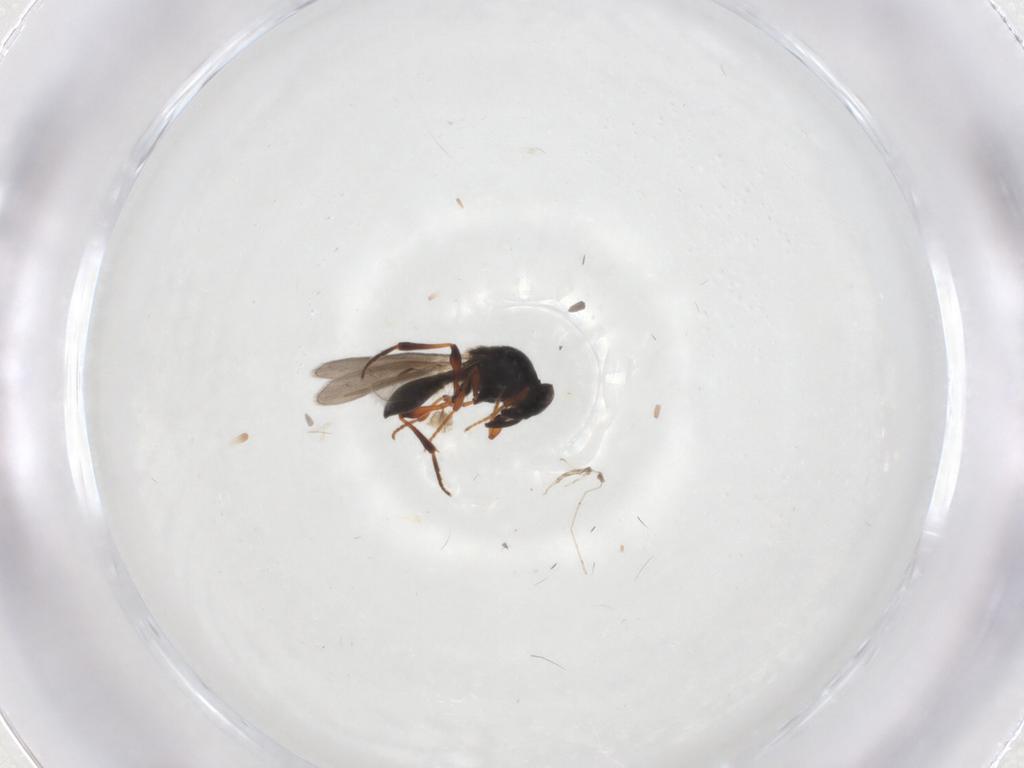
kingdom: Animalia
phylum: Arthropoda
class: Insecta
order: Hymenoptera
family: Platygastridae
